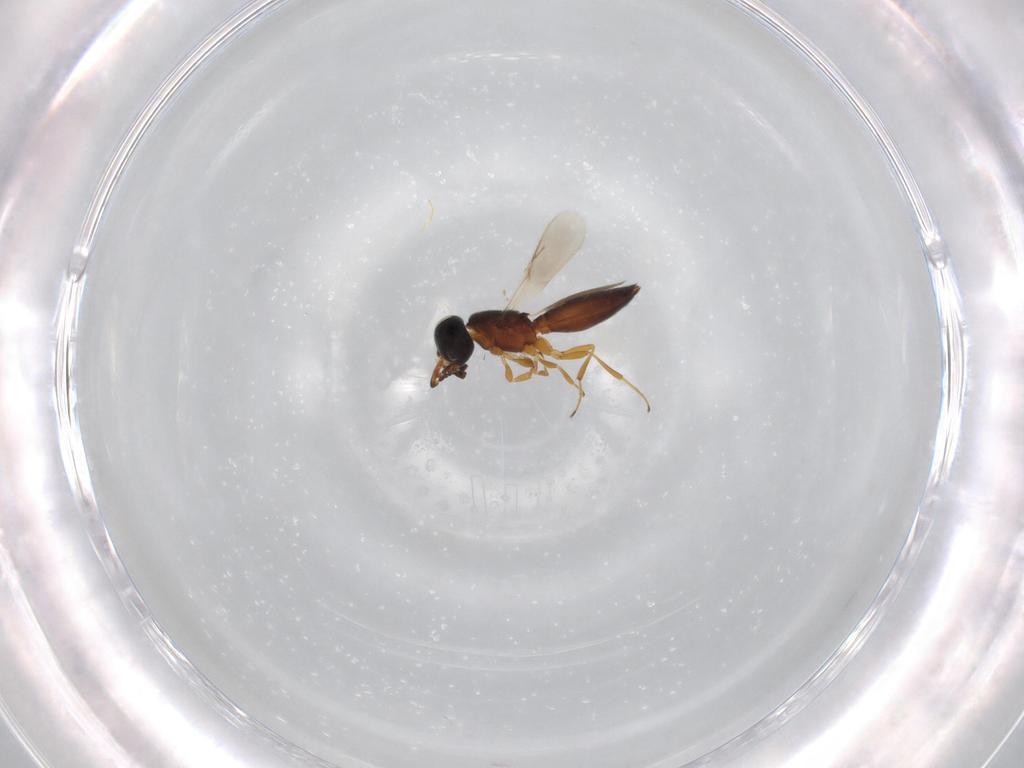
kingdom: Animalia
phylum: Arthropoda
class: Insecta
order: Hymenoptera
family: Scelionidae
